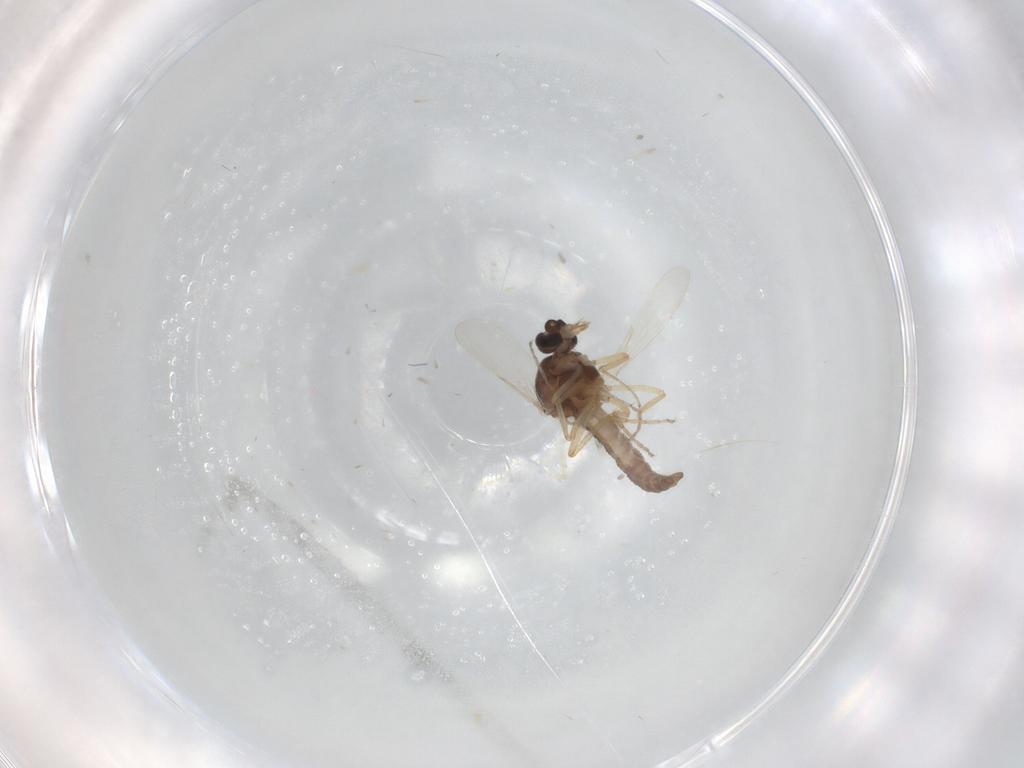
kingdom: Animalia
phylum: Arthropoda
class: Insecta
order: Diptera
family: Ceratopogonidae
